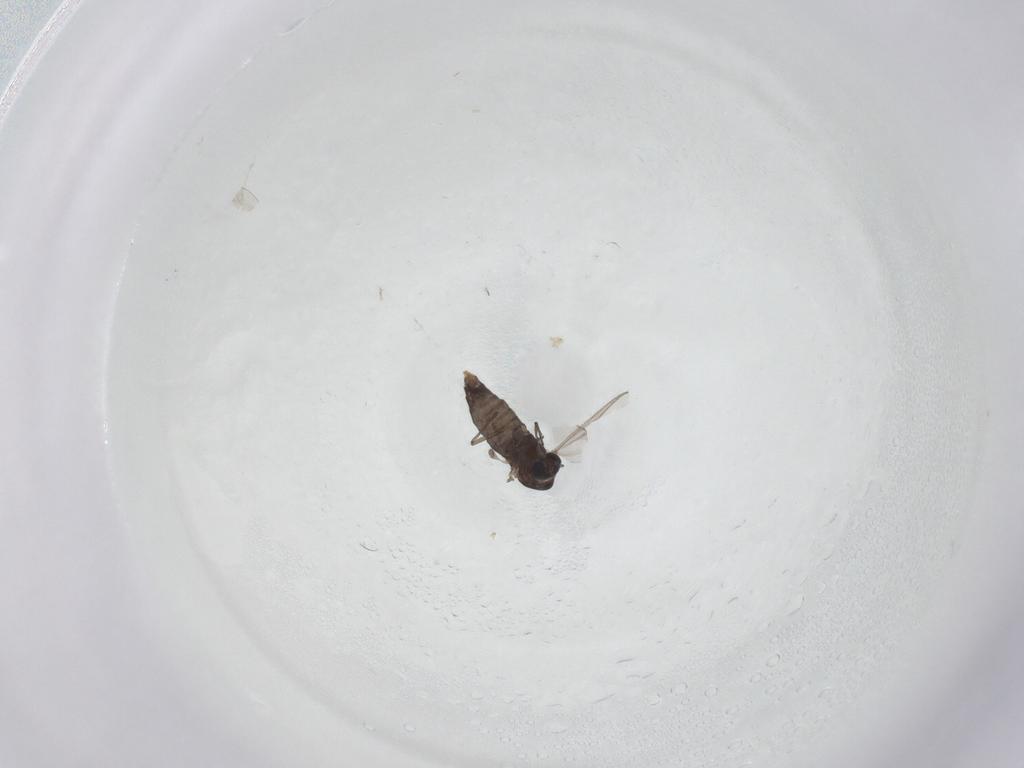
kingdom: Animalia
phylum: Arthropoda
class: Insecta
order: Diptera
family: Chironomidae
